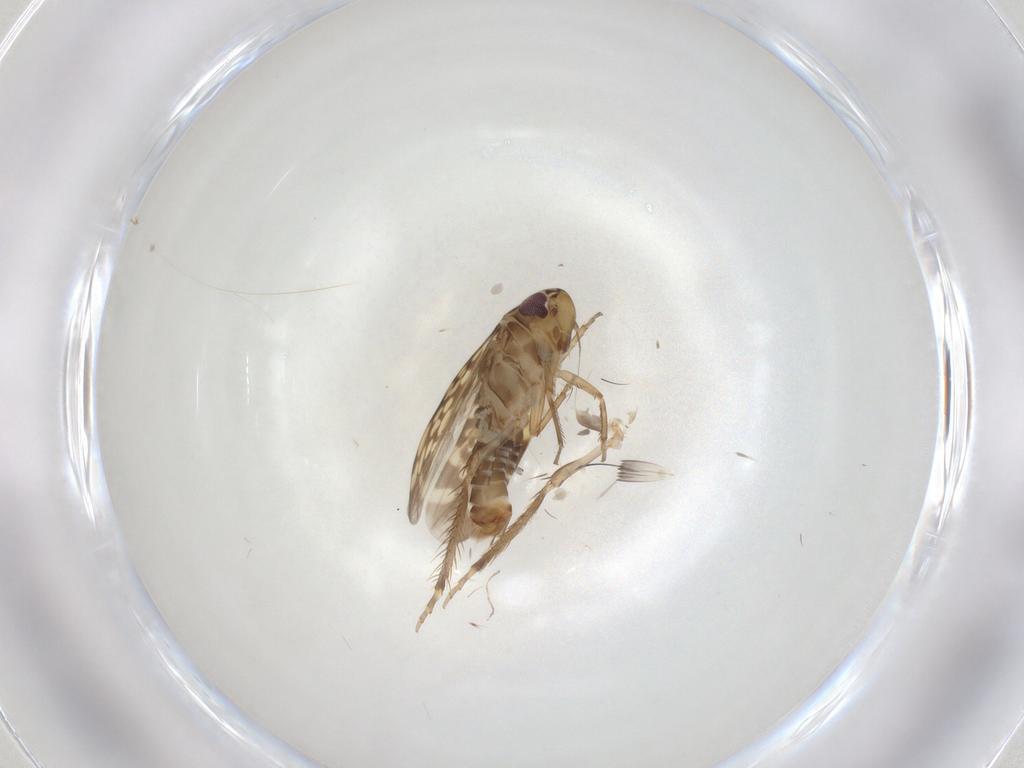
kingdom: Animalia
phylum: Arthropoda
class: Insecta
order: Hemiptera
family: Cicadellidae
